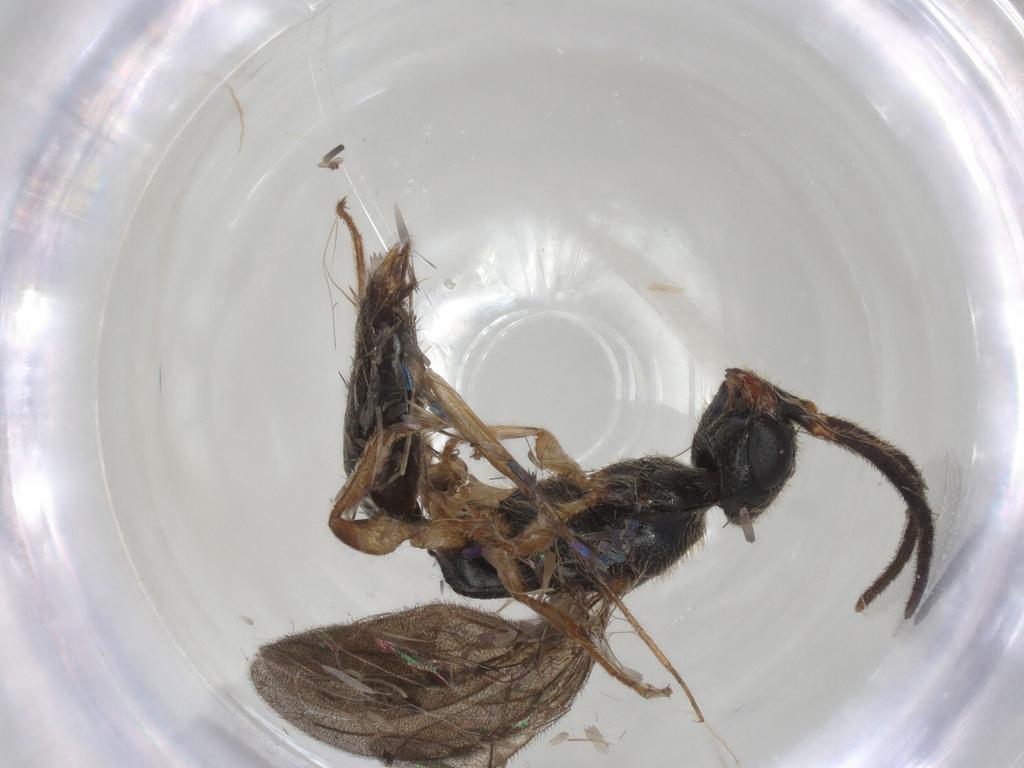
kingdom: Animalia
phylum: Arthropoda
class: Insecta
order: Hymenoptera
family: Bethylidae
